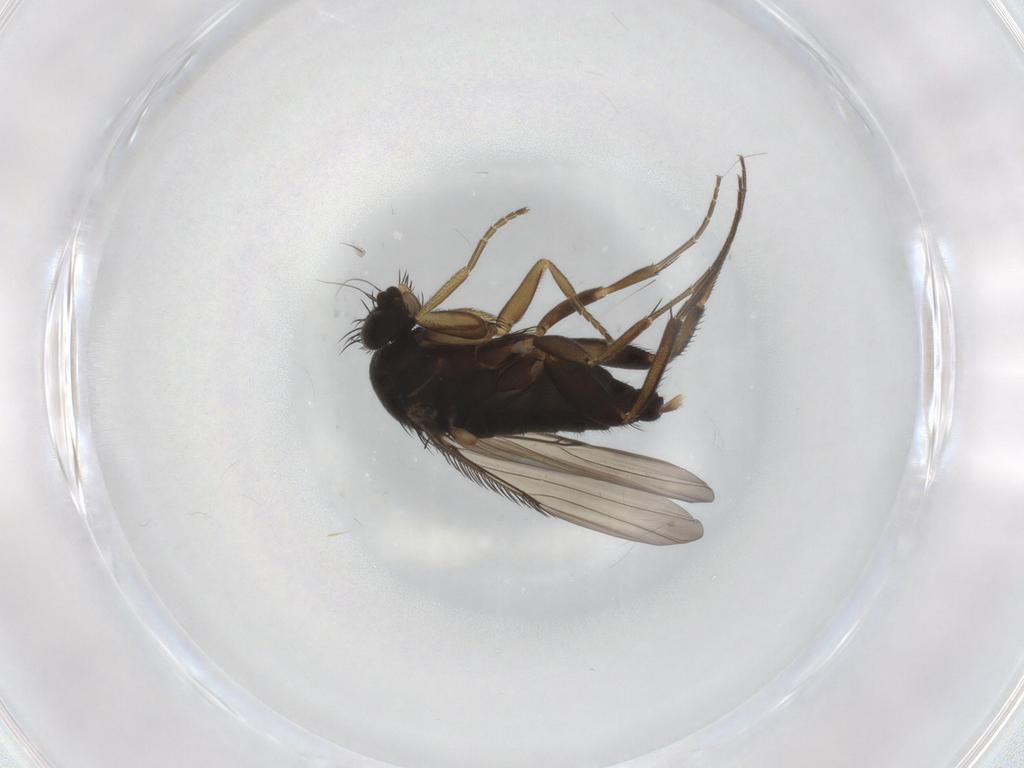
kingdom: Animalia
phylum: Arthropoda
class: Insecta
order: Diptera
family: Phoridae
